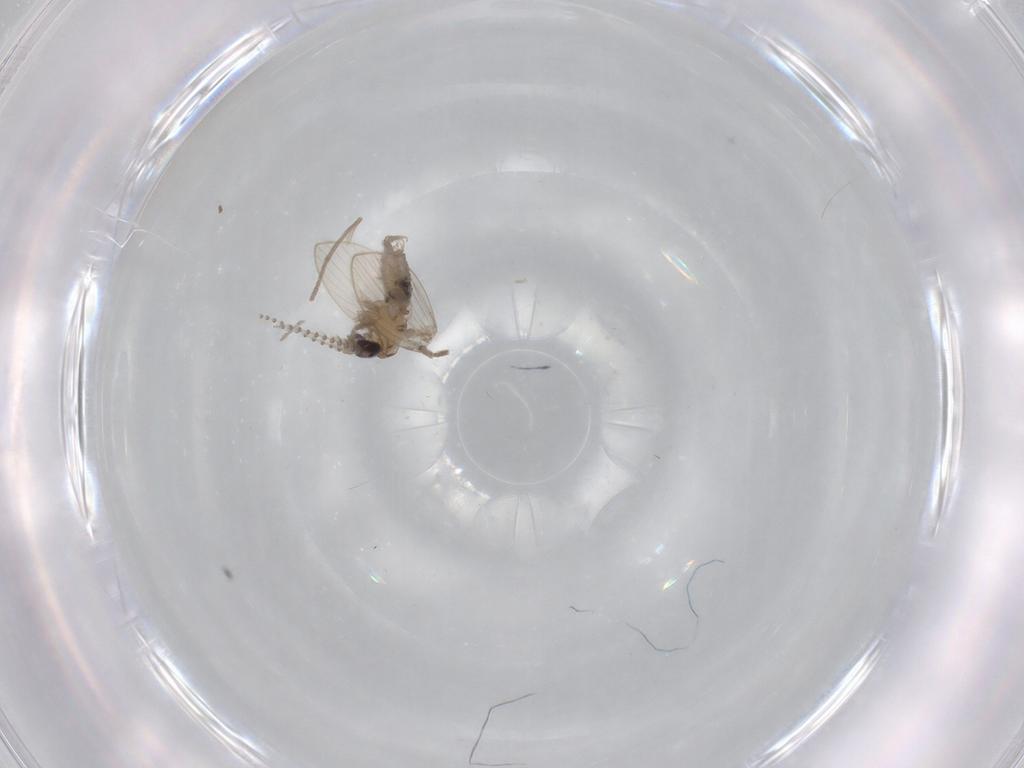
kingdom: Animalia
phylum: Arthropoda
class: Insecta
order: Diptera
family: Psychodidae
